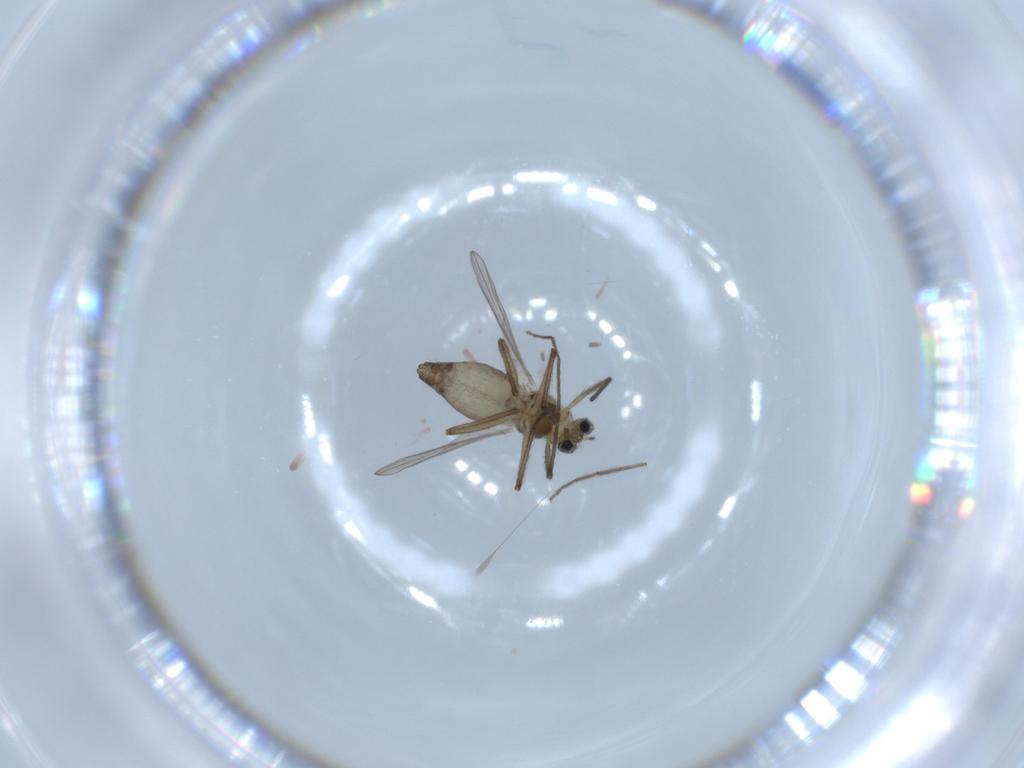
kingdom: Animalia
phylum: Arthropoda
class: Insecta
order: Diptera
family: Chironomidae
